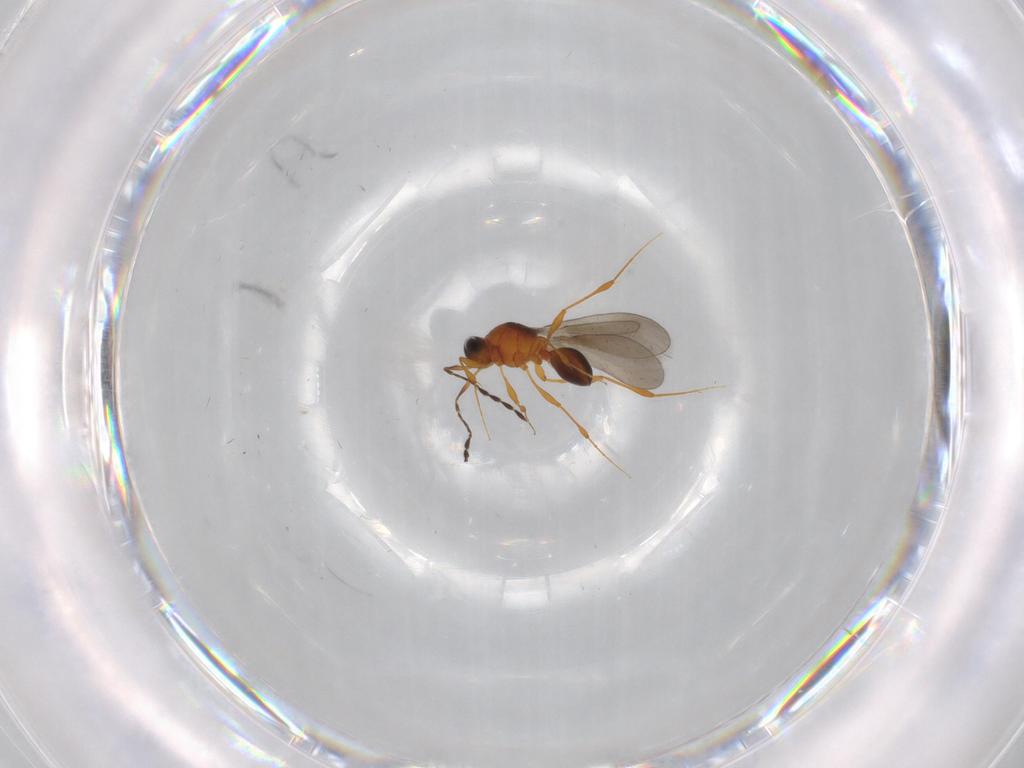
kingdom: Animalia
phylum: Arthropoda
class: Insecta
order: Hymenoptera
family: Platygastridae
